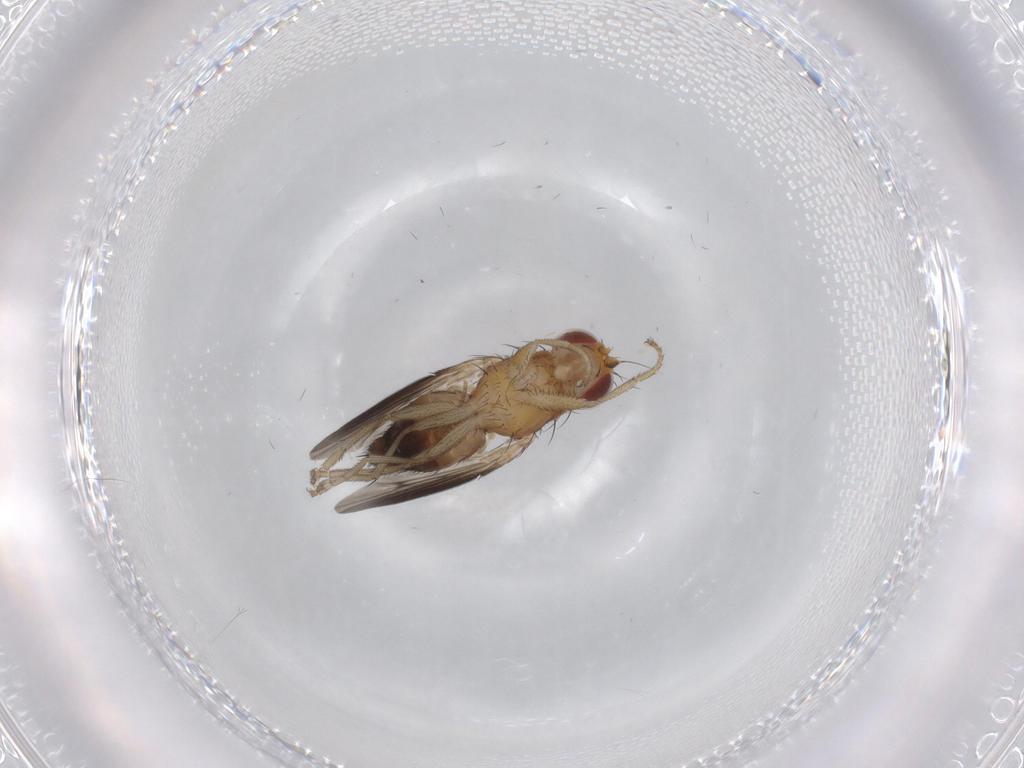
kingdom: Animalia
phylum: Arthropoda
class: Insecta
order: Diptera
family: Heleomyzidae
